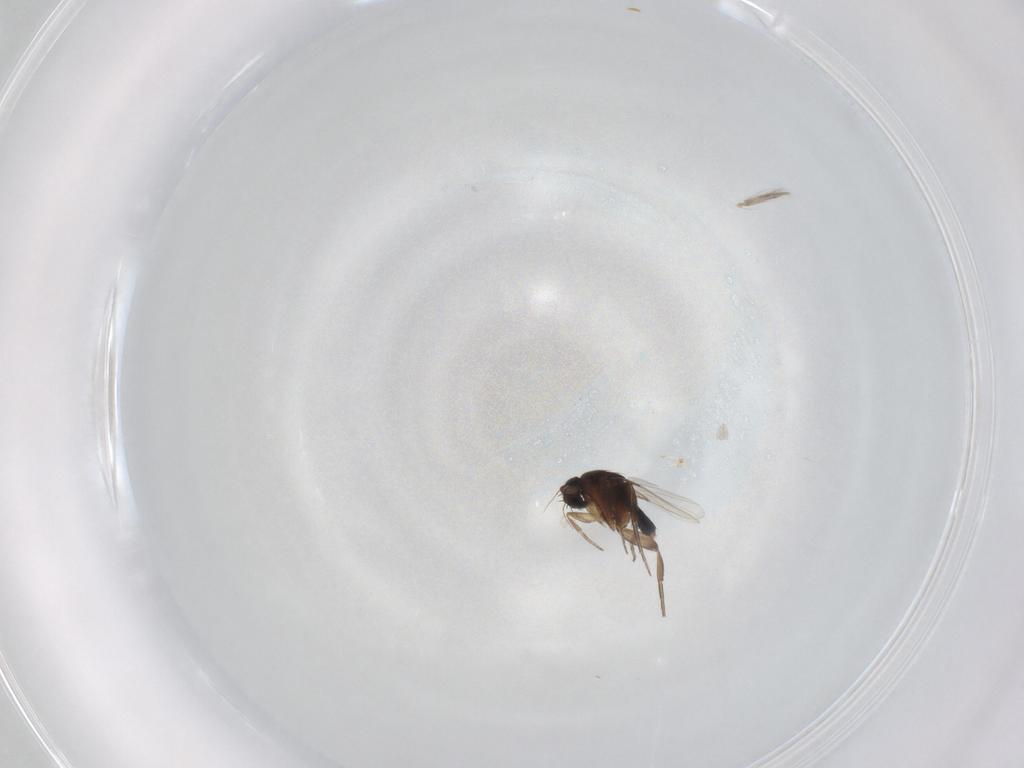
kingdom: Animalia
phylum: Arthropoda
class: Insecta
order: Diptera
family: Phoridae
